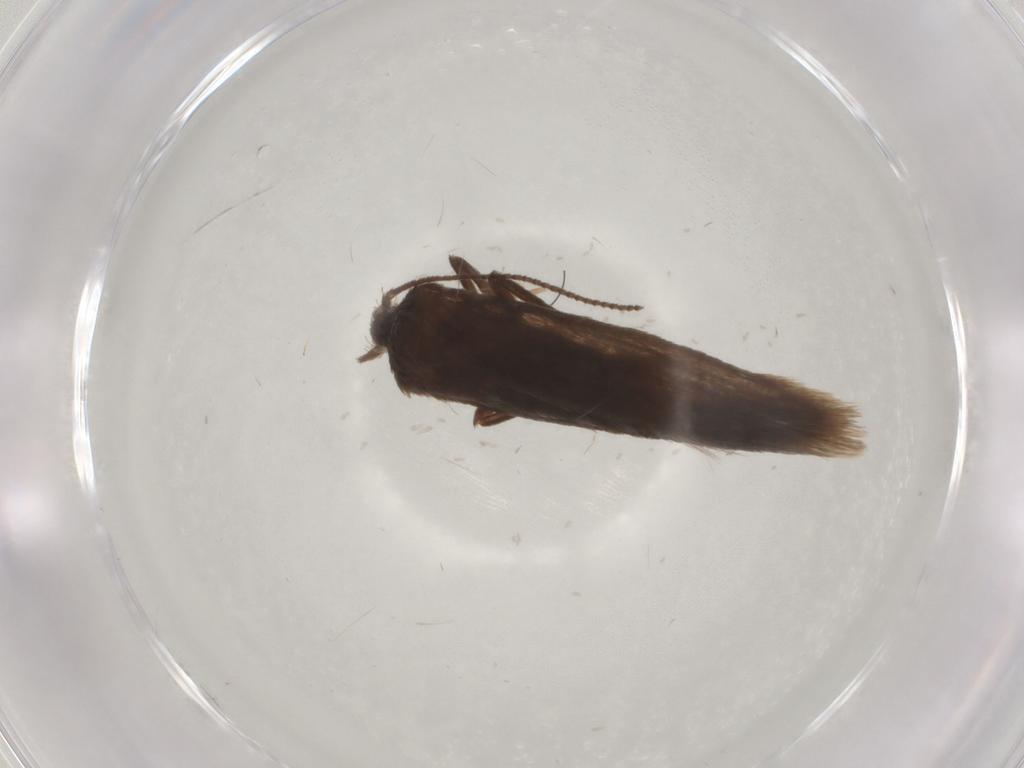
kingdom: Animalia
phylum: Arthropoda
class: Insecta
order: Lepidoptera
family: Limacodidae
